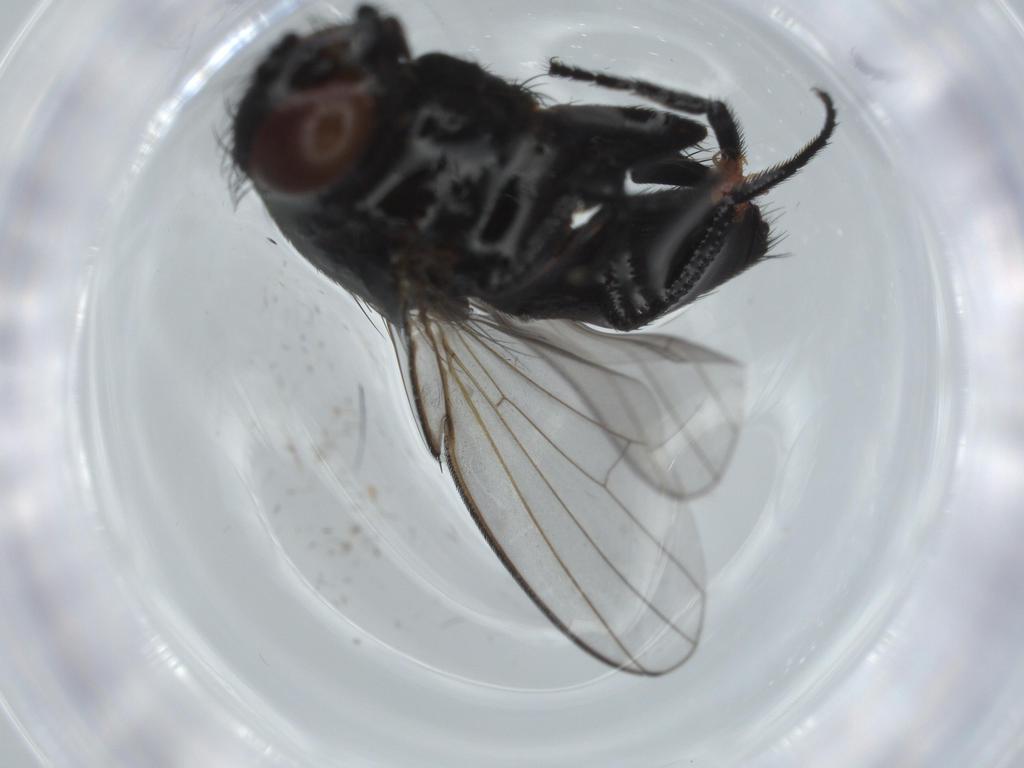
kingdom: Animalia
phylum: Arthropoda
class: Insecta
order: Diptera
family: Milichiidae
